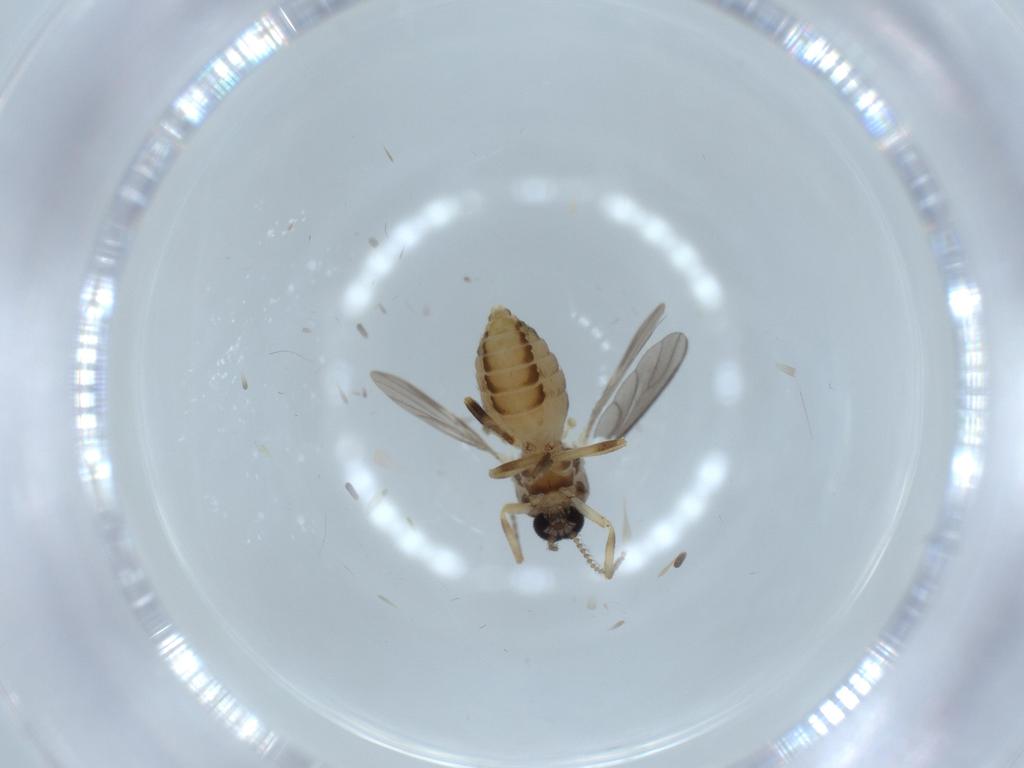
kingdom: Animalia
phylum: Arthropoda
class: Insecta
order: Diptera
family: Ceratopogonidae
